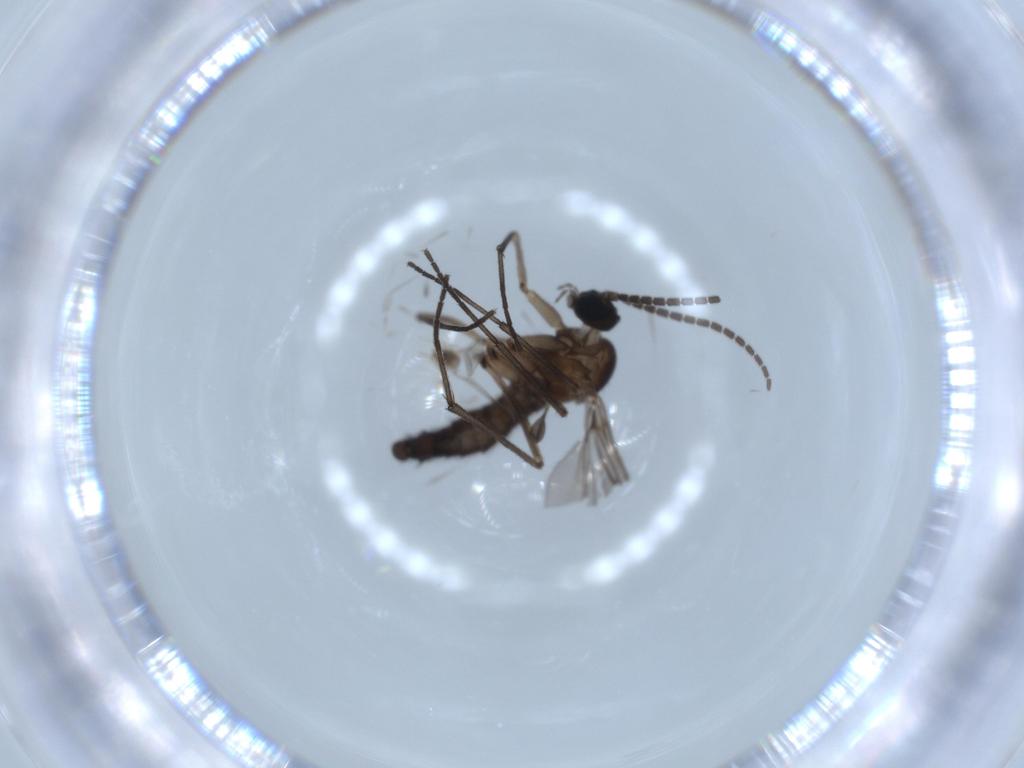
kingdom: Animalia
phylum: Arthropoda
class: Insecta
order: Diptera
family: Sciaridae
